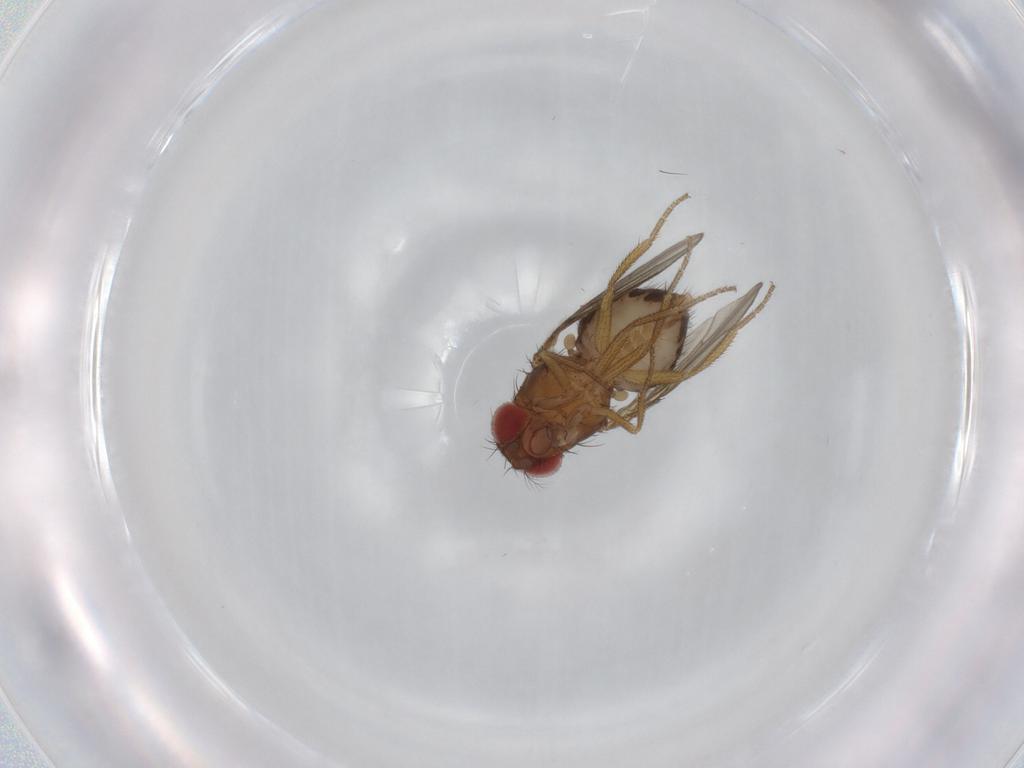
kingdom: Animalia
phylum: Arthropoda
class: Insecta
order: Diptera
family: Drosophilidae
